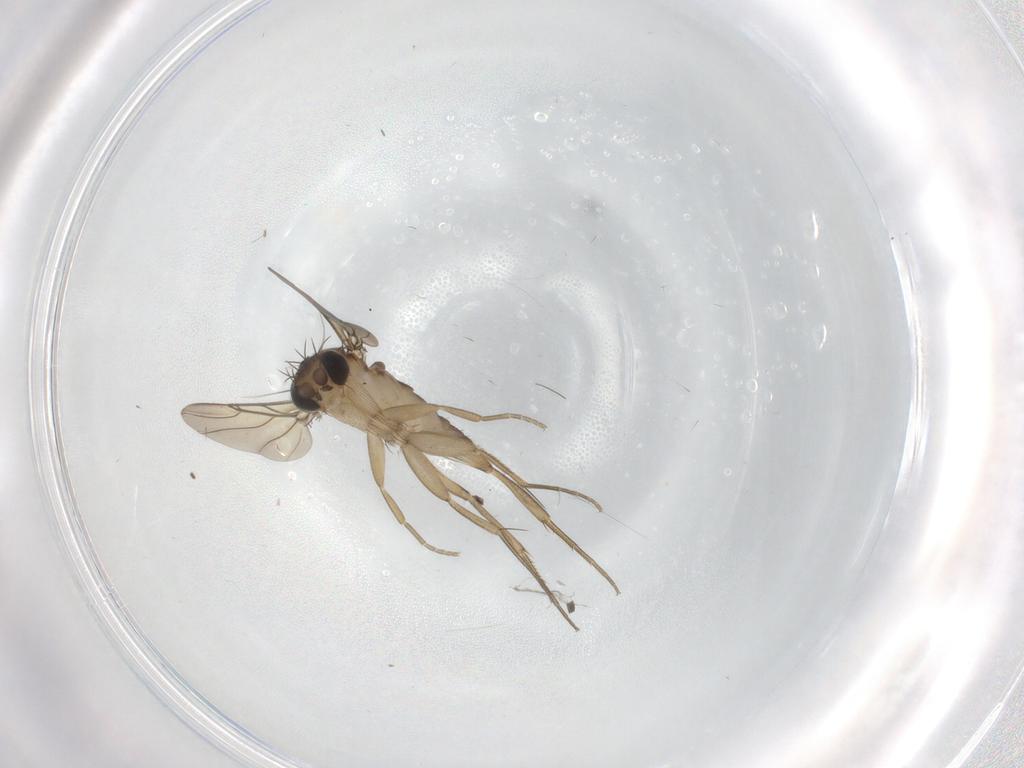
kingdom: Animalia
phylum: Arthropoda
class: Insecta
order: Diptera
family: Phoridae
